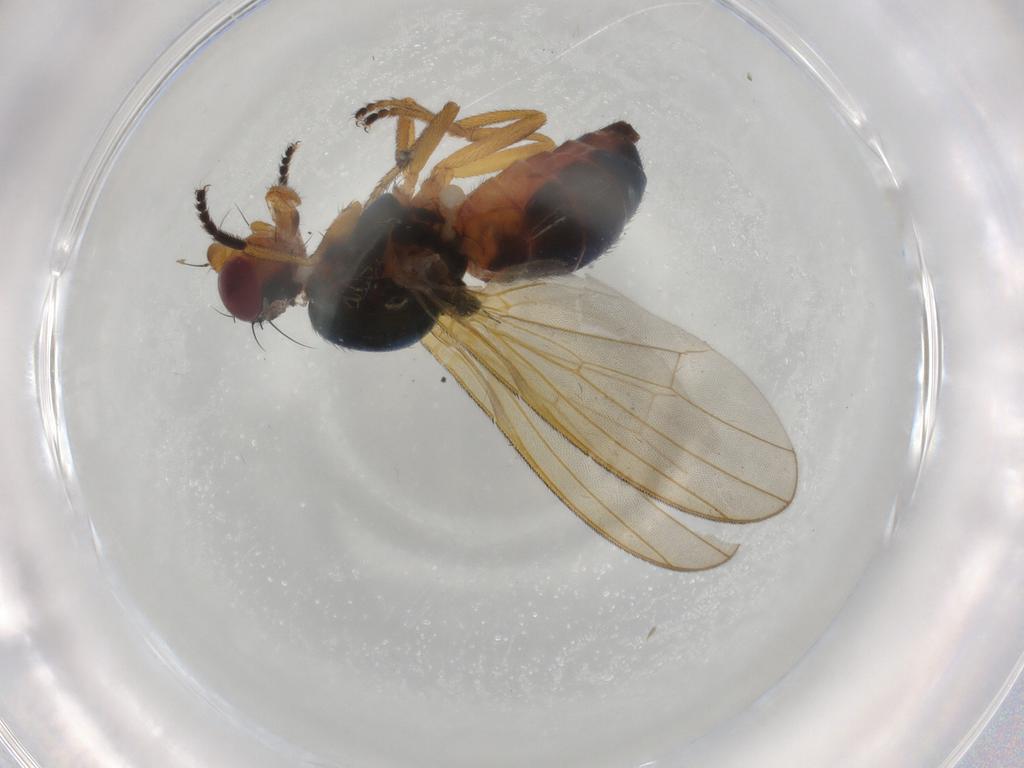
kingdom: Animalia
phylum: Arthropoda
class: Insecta
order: Diptera
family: Piophilidae
